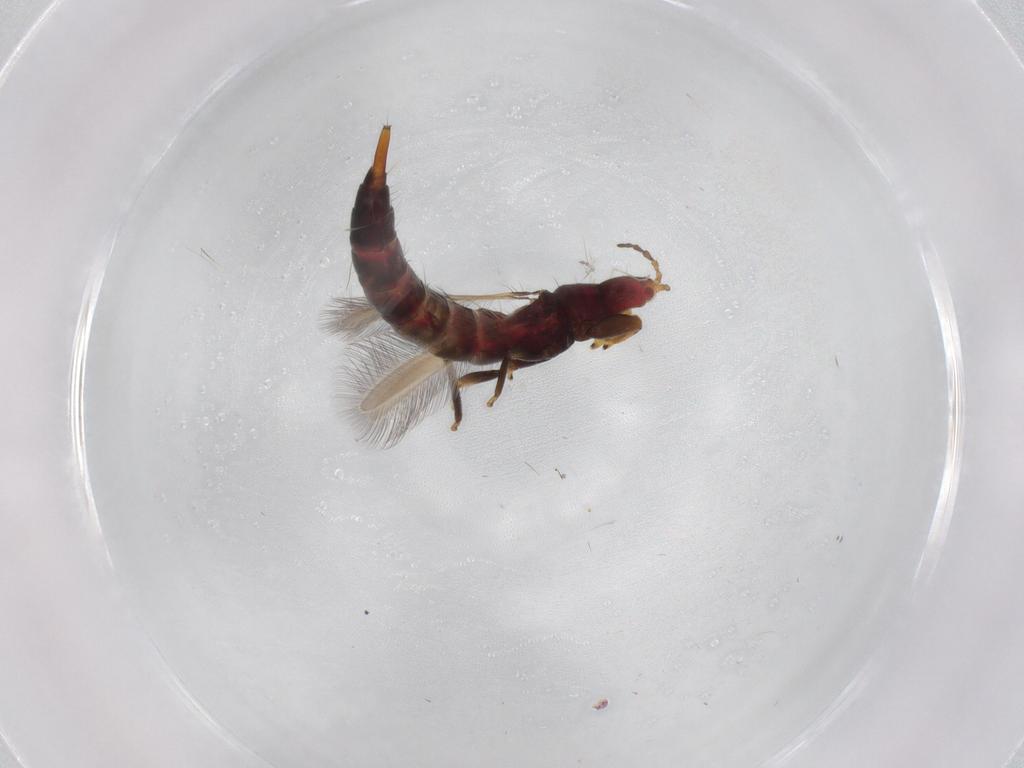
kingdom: Animalia
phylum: Arthropoda
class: Insecta
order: Thysanoptera
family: Phlaeothripidae
